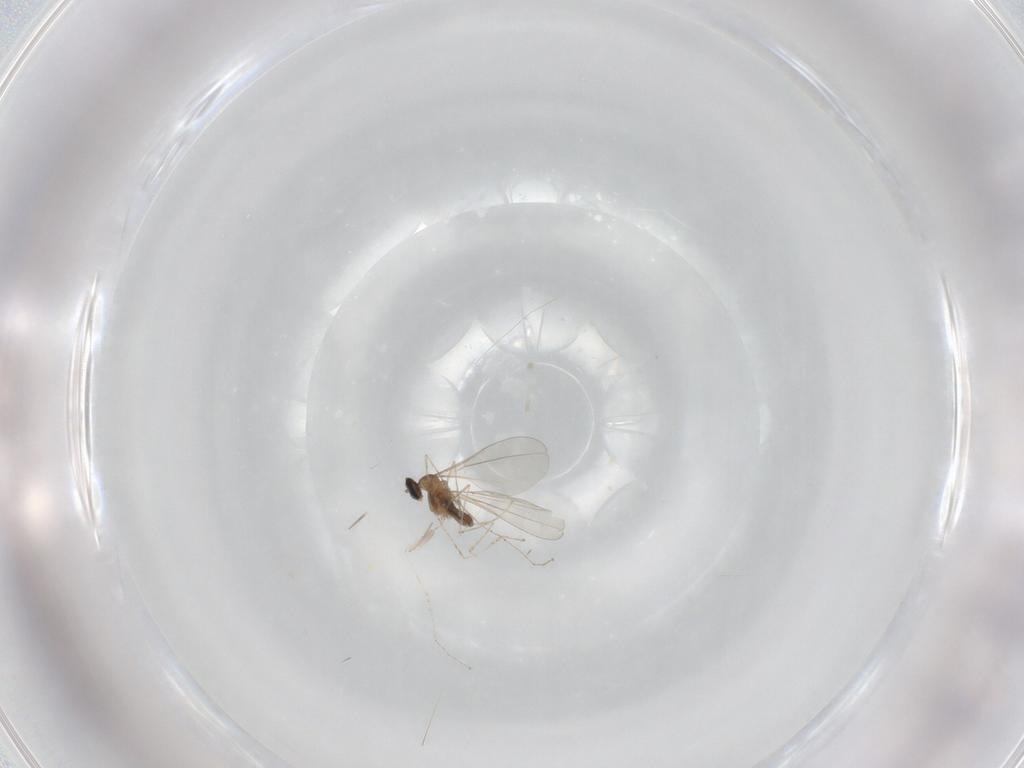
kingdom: Animalia
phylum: Arthropoda
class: Insecta
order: Diptera
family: Cecidomyiidae
